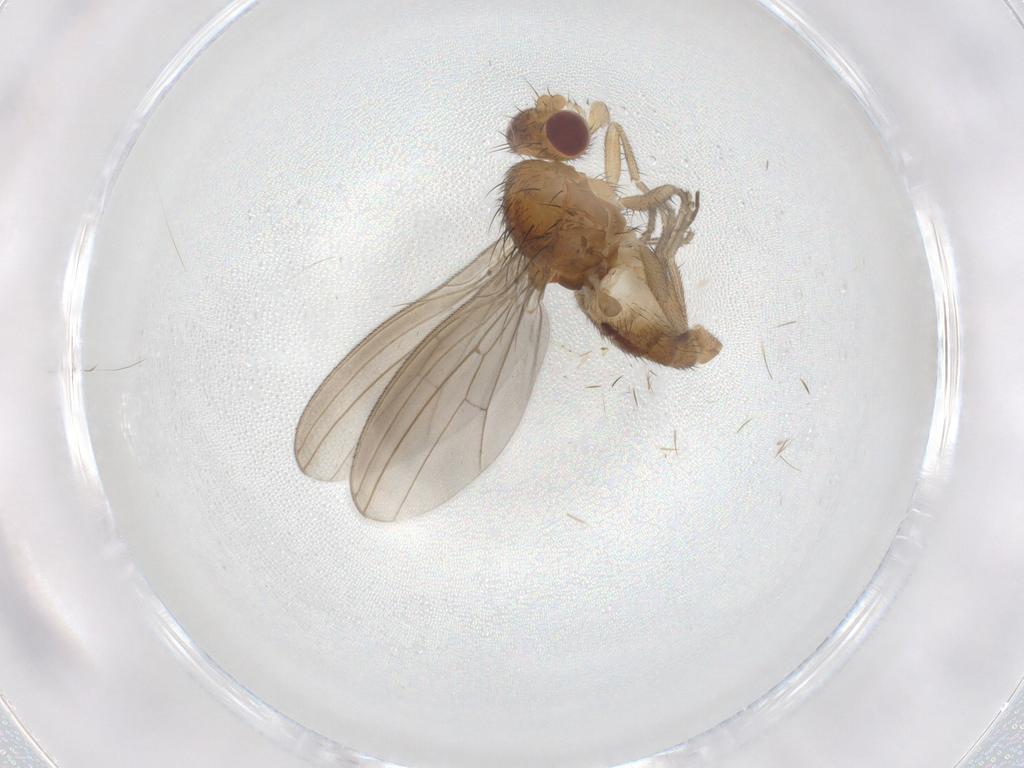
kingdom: Animalia
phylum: Arthropoda
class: Insecta
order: Diptera
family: Natalimyzidae
